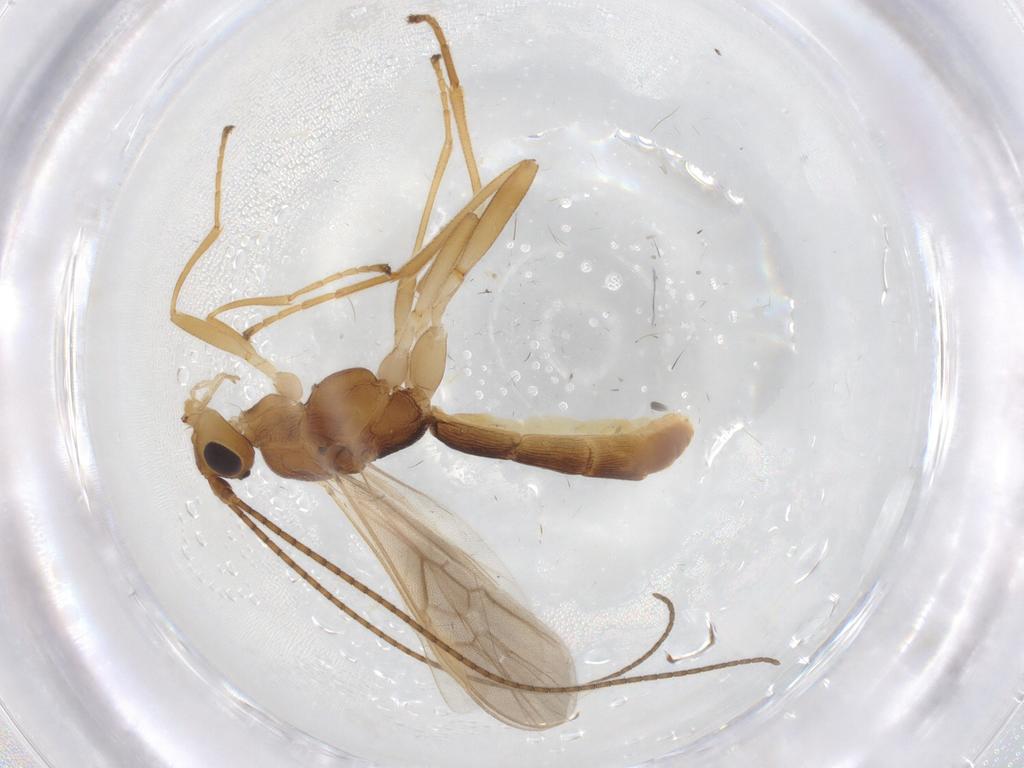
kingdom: Animalia
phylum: Arthropoda
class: Insecta
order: Hymenoptera
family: Braconidae
